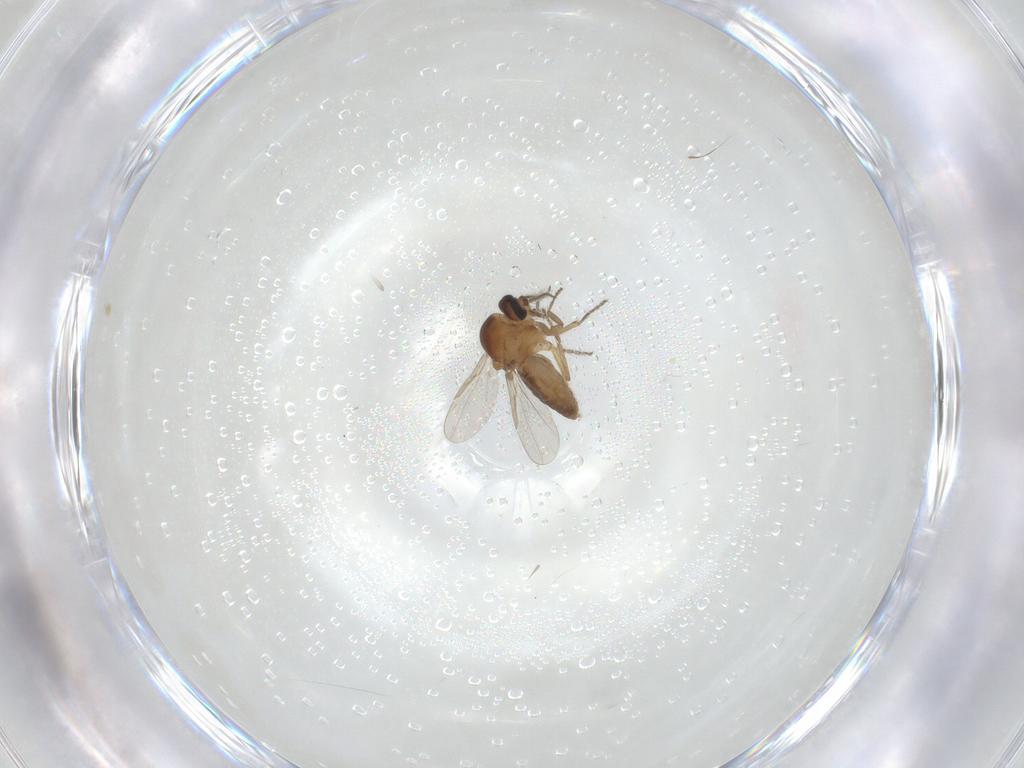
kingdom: Animalia
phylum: Arthropoda
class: Insecta
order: Diptera
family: Ceratopogonidae
